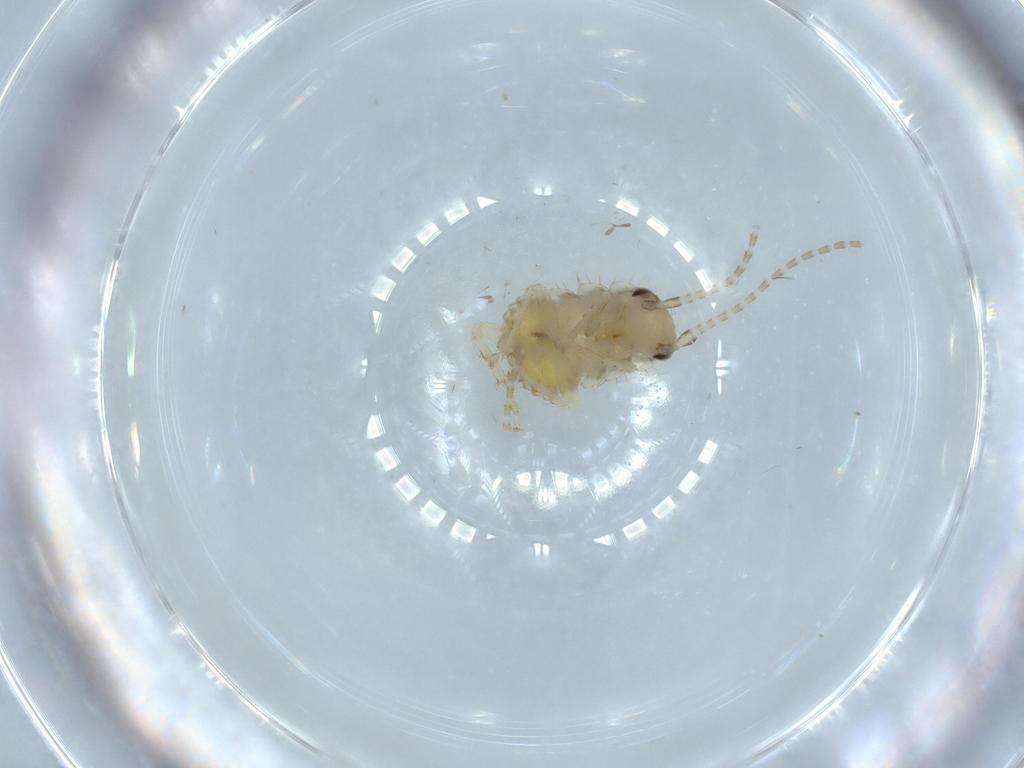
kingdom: Animalia
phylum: Arthropoda
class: Insecta
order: Blattodea
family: Ectobiidae
